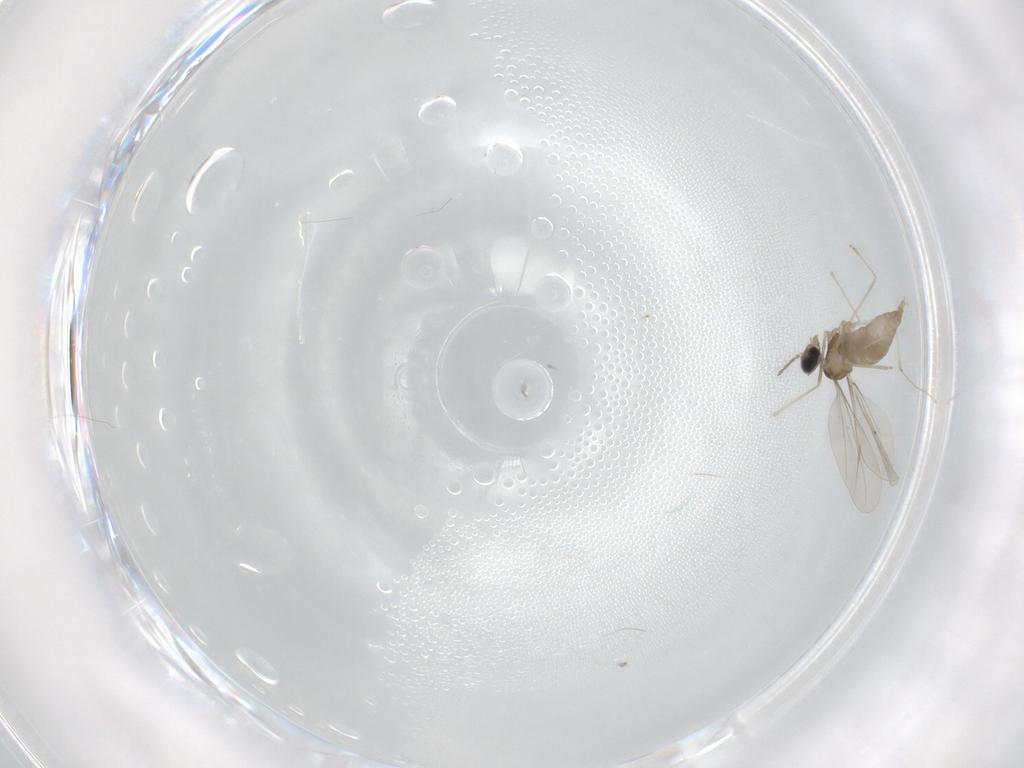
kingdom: Animalia
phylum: Arthropoda
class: Insecta
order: Diptera
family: Cecidomyiidae
